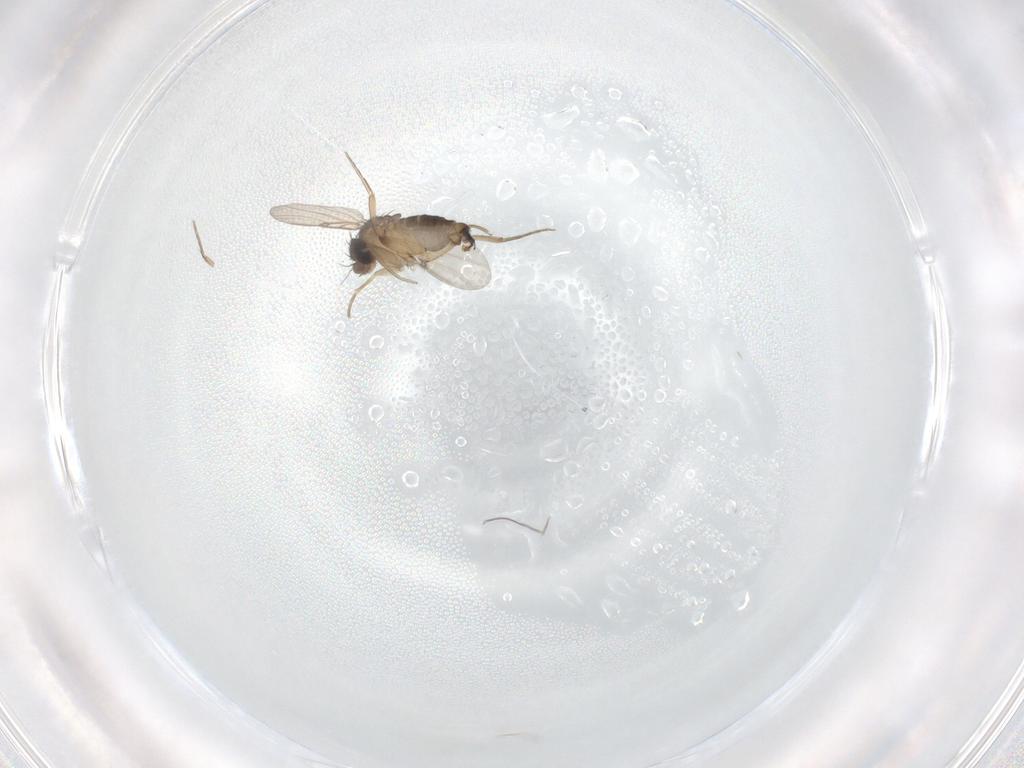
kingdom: Animalia
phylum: Arthropoda
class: Insecta
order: Diptera
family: Phoridae
